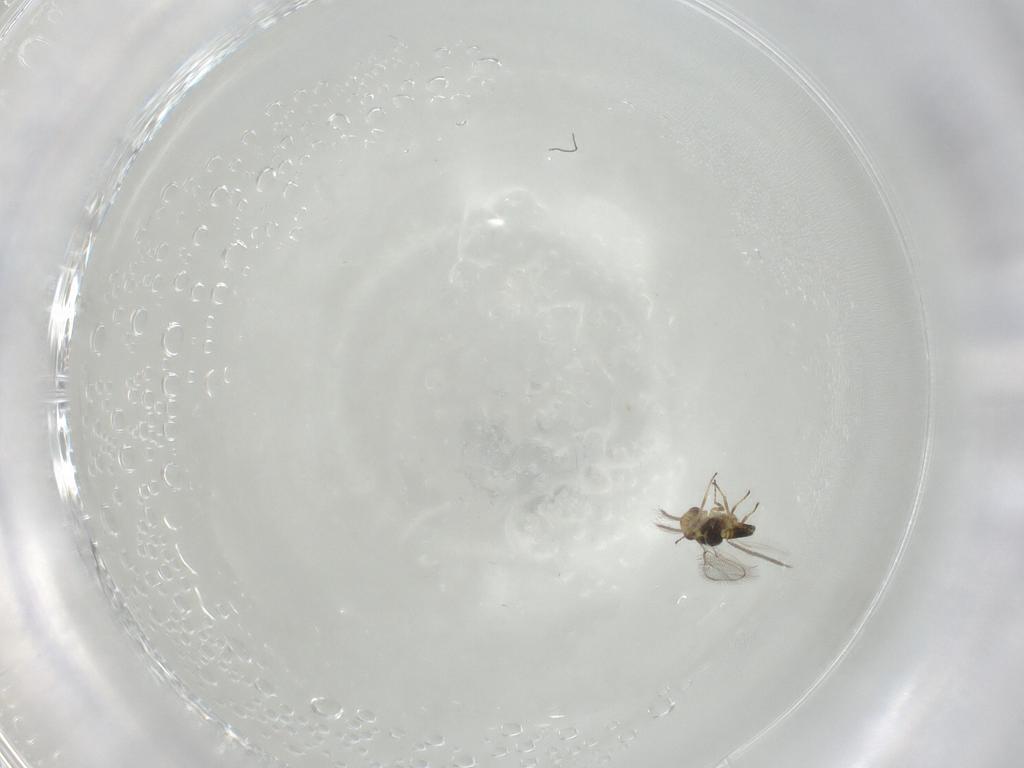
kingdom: Animalia
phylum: Arthropoda
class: Insecta
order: Hymenoptera
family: Eulophidae
